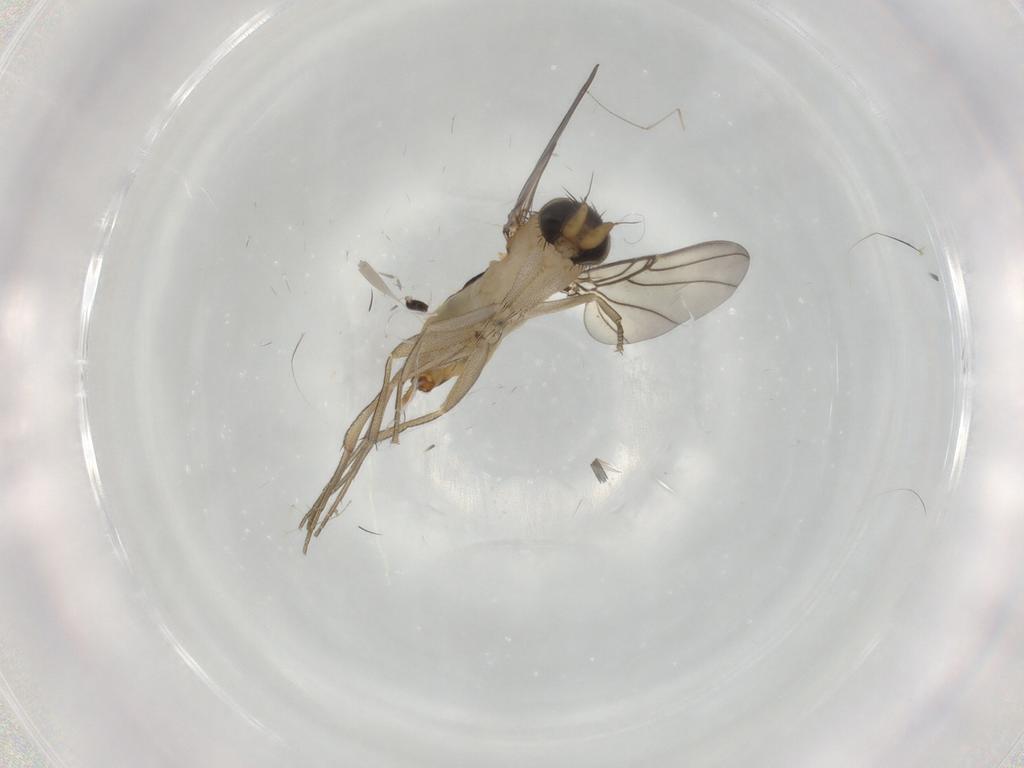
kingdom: Animalia
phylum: Arthropoda
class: Insecta
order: Diptera
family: Phoridae
